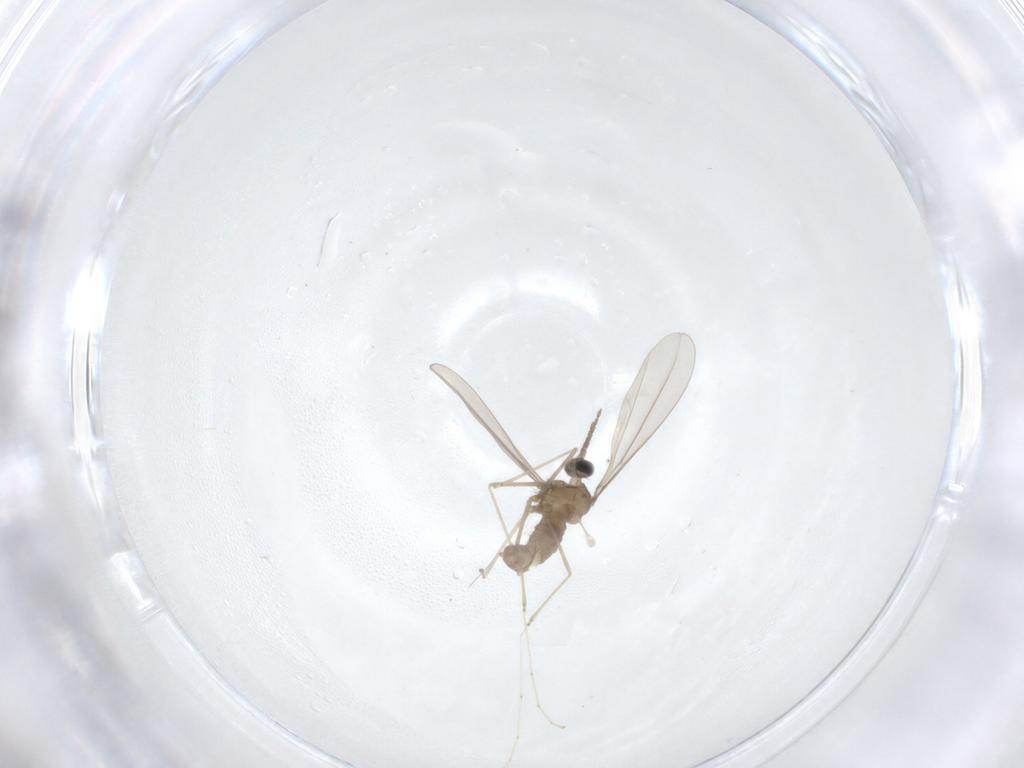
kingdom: Animalia
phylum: Arthropoda
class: Insecta
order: Diptera
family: Cecidomyiidae
